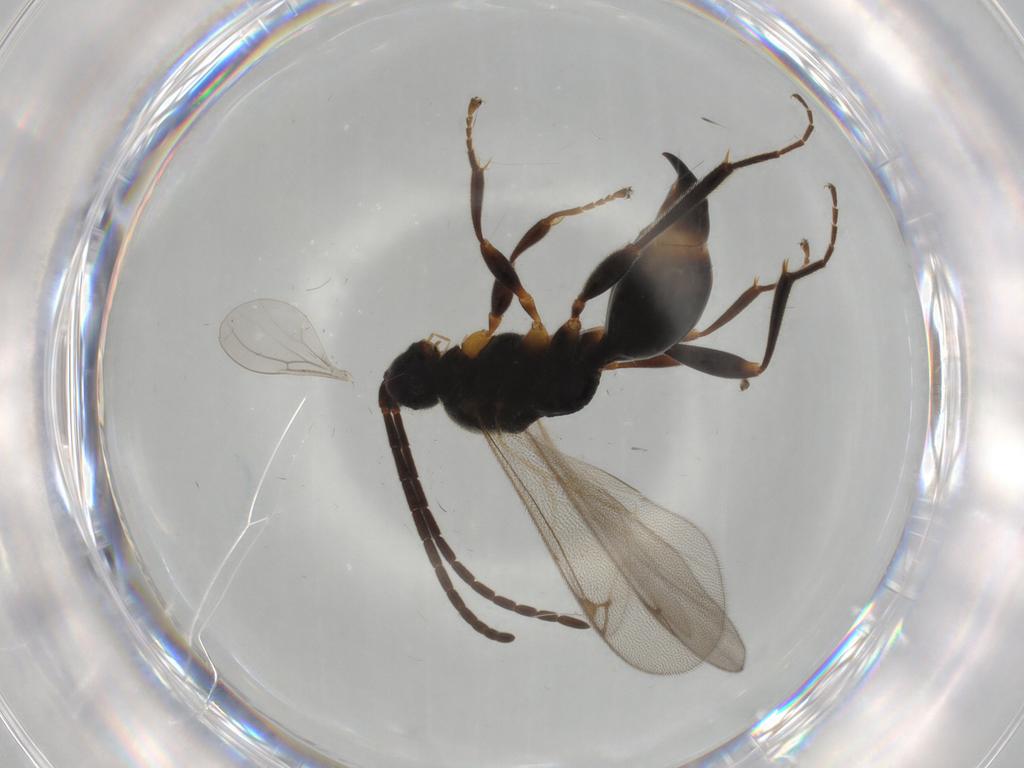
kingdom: Animalia
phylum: Arthropoda
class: Insecta
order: Hymenoptera
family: Proctotrupidae
